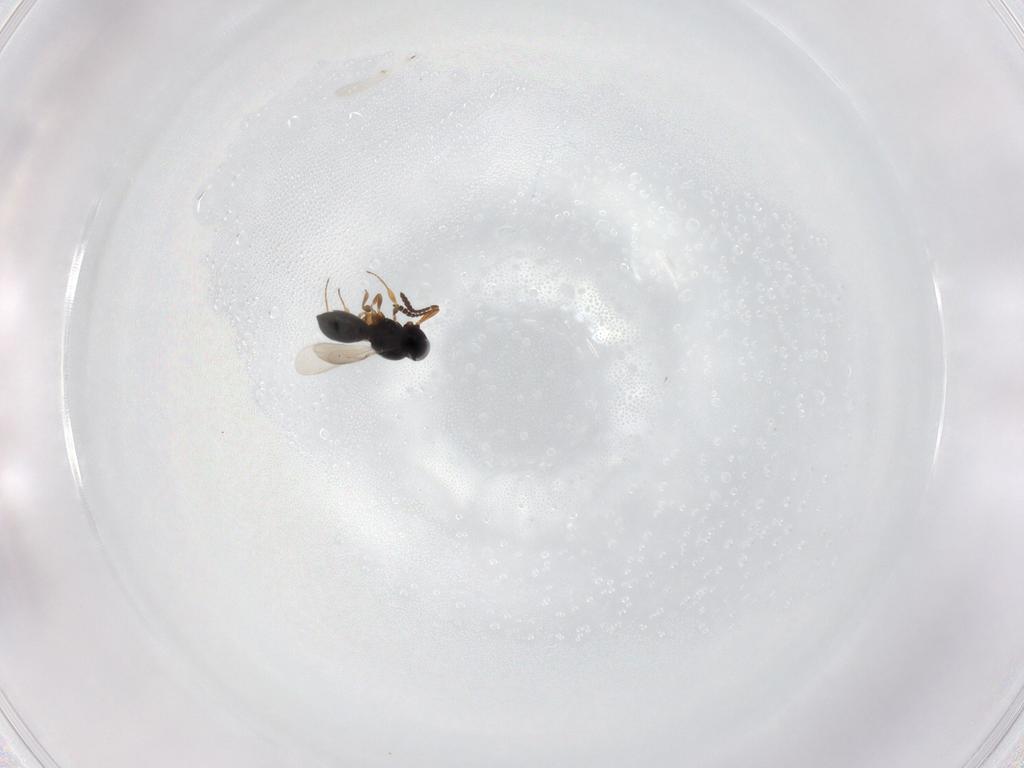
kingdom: Animalia
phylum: Arthropoda
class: Insecta
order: Hymenoptera
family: Scelionidae
